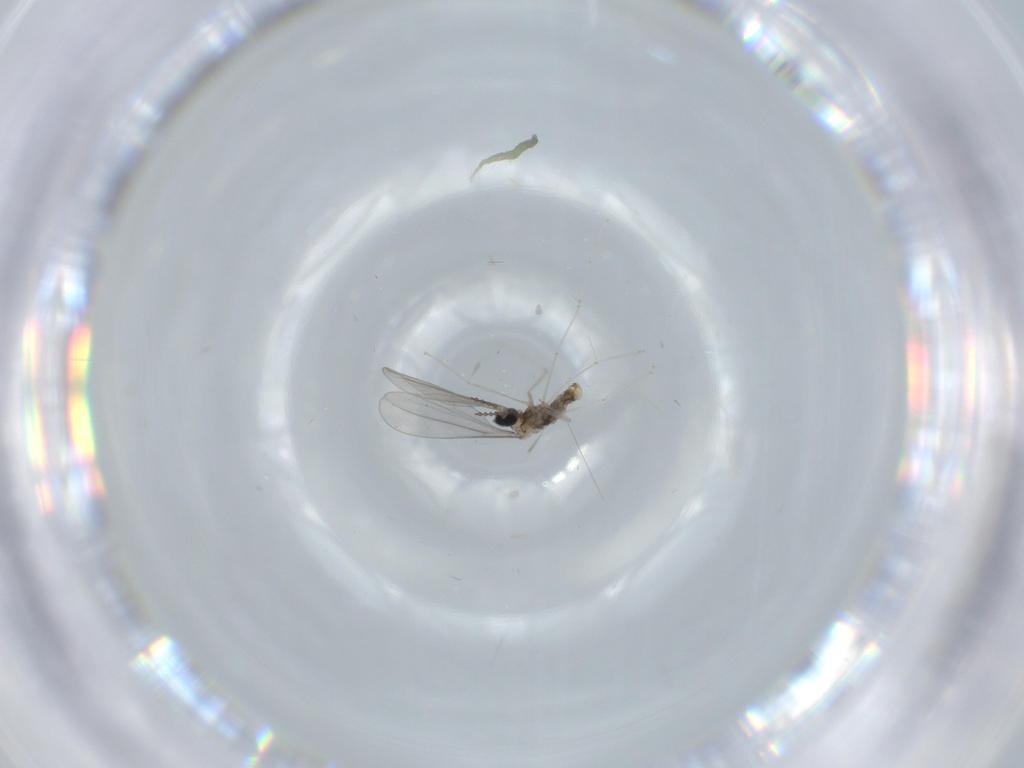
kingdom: Animalia
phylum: Arthropoda
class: Insecta
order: Diptera
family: Cecidomyiidae
